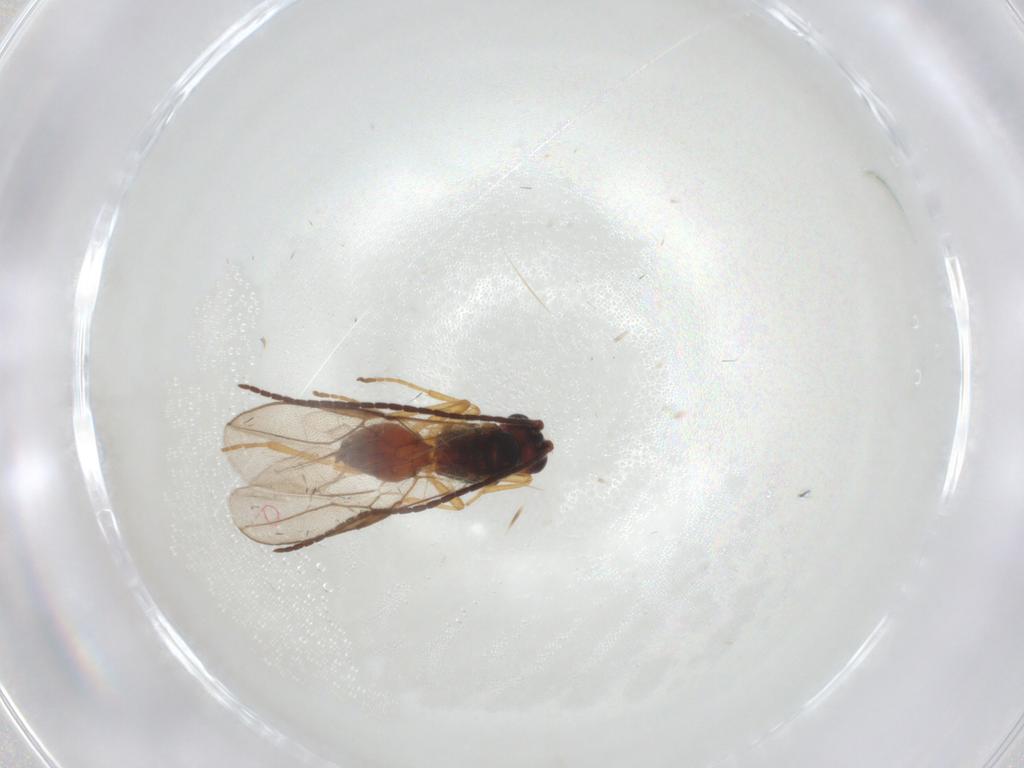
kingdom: Animalia
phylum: Arthropoda
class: Insecta
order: Hymenoptera
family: Braconidae
